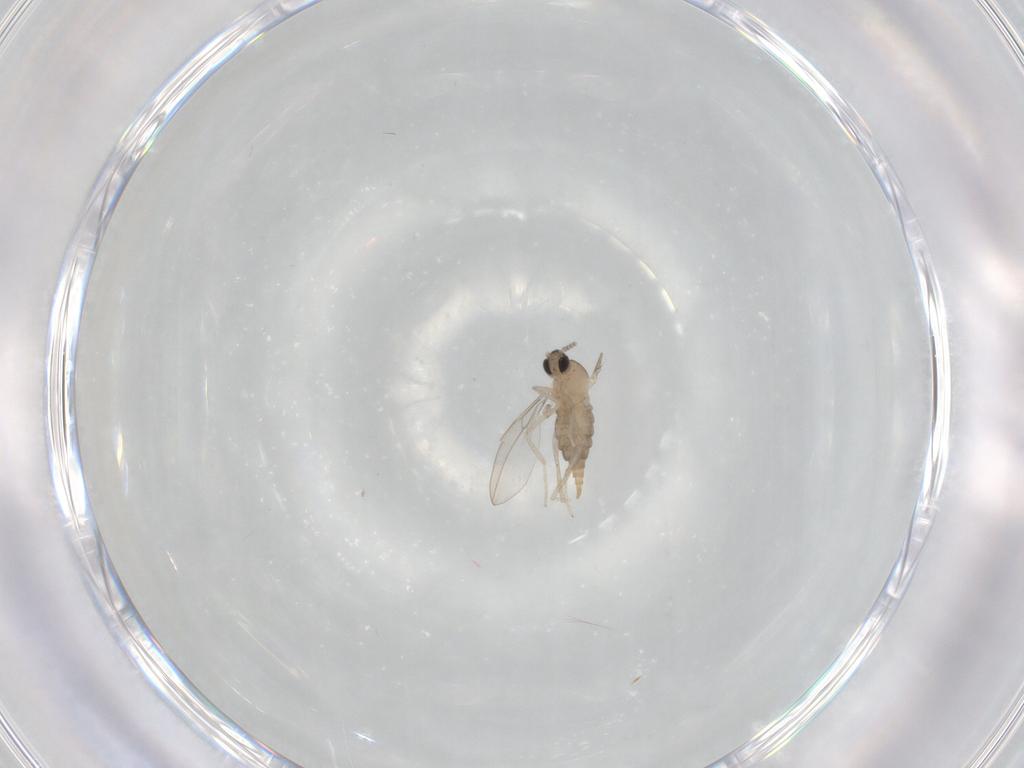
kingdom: Animalia
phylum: Arthropoda
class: Insecta
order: Diptera
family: Cecidomyiidae
